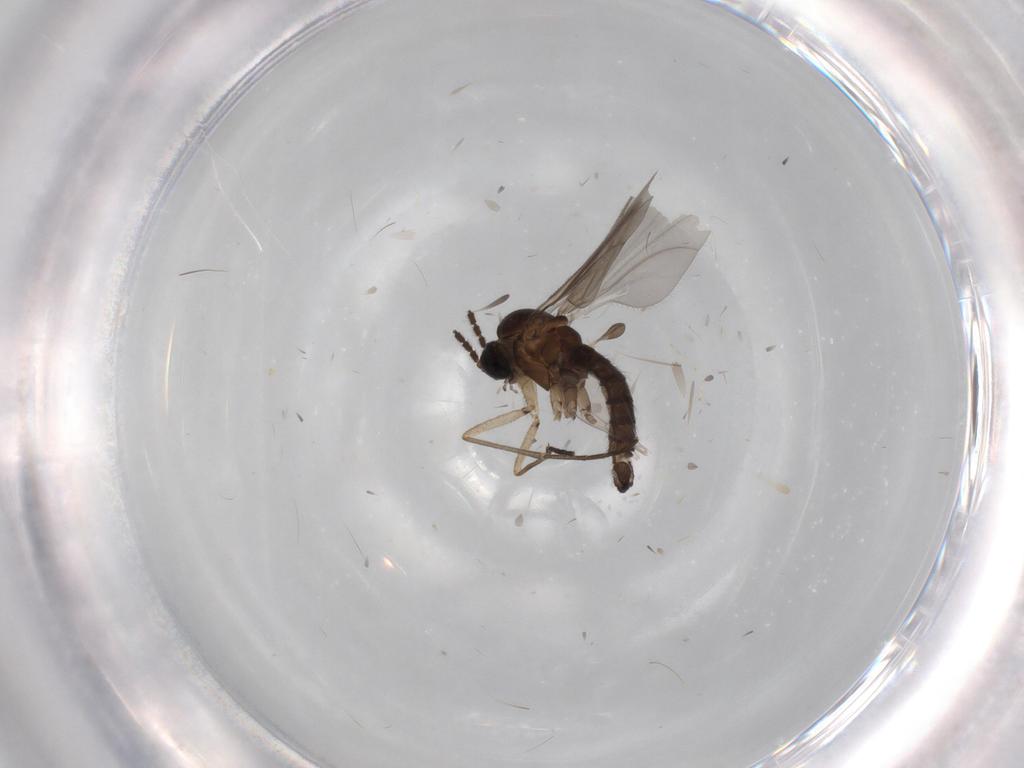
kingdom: Animalia
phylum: Arthropoda
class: Insecta
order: Diptera
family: Sciaridae
